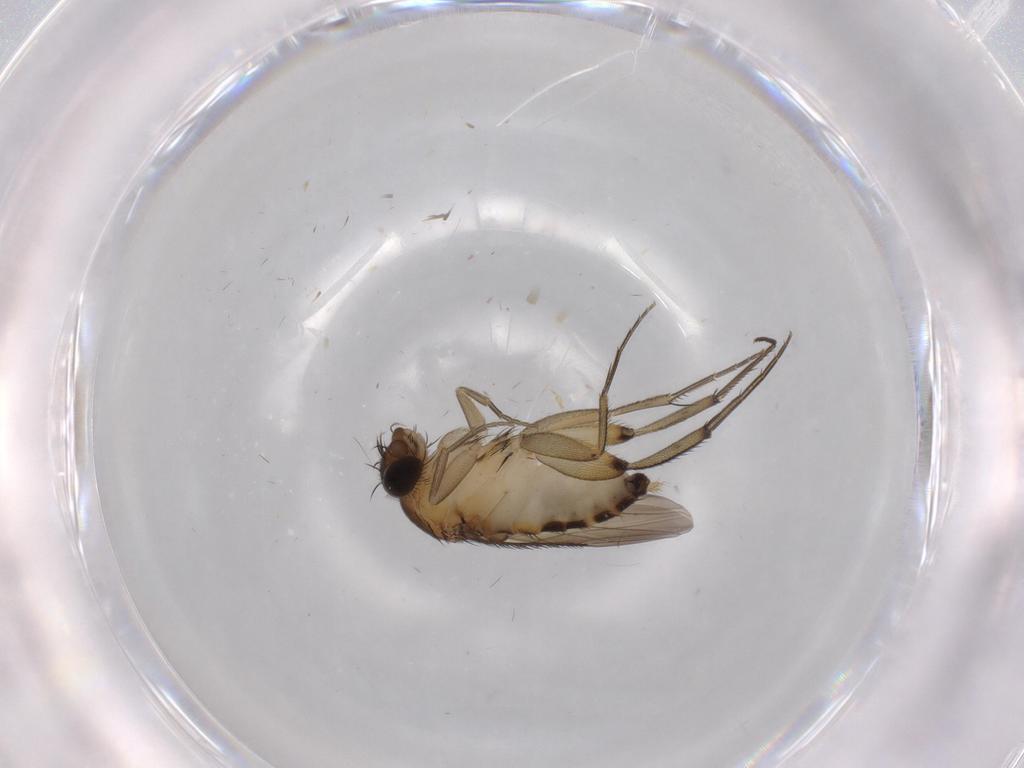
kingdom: Animalia
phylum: Arthropoda
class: Insecta
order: Diptera
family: Phoridae
